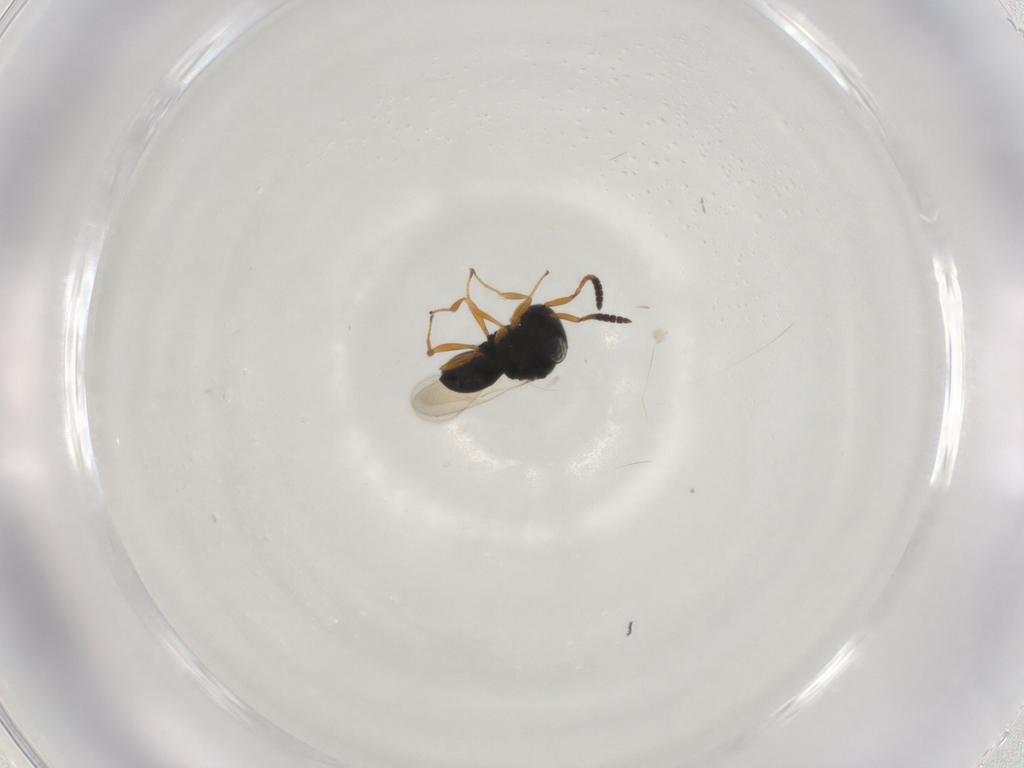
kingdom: Animalia
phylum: Arthropoda
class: Insecta
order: Hymenoptera
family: Scelionidae
